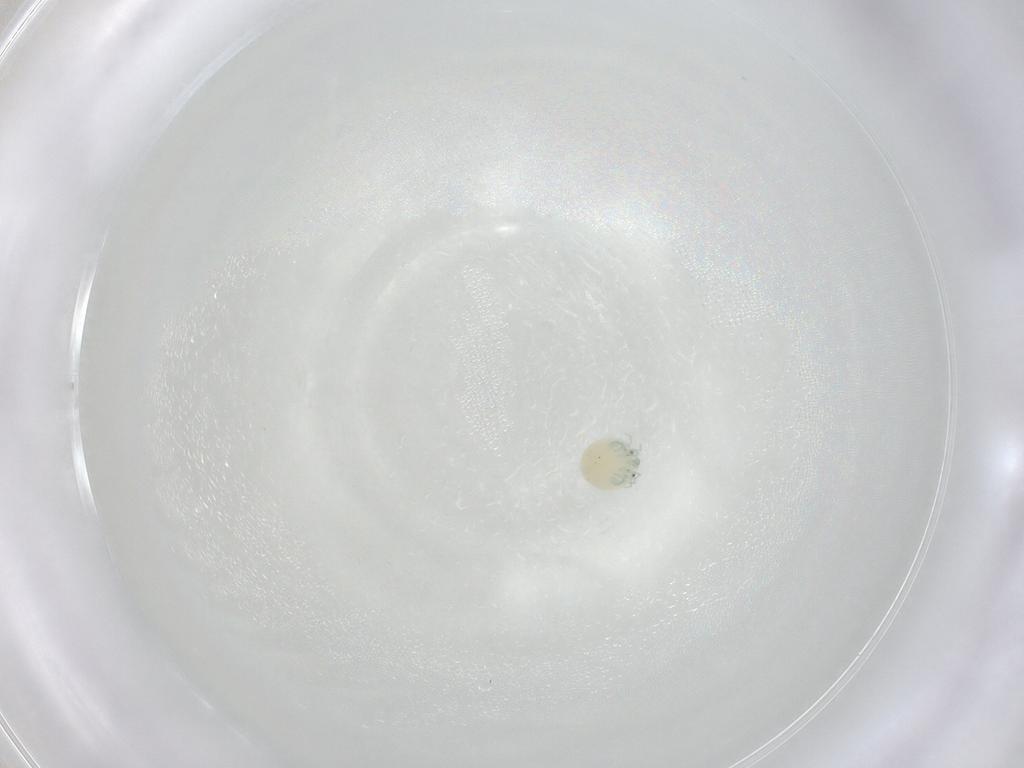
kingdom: Animalia
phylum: Arthropoda
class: Arachnida
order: Trombidiformes
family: Arrenuridae
